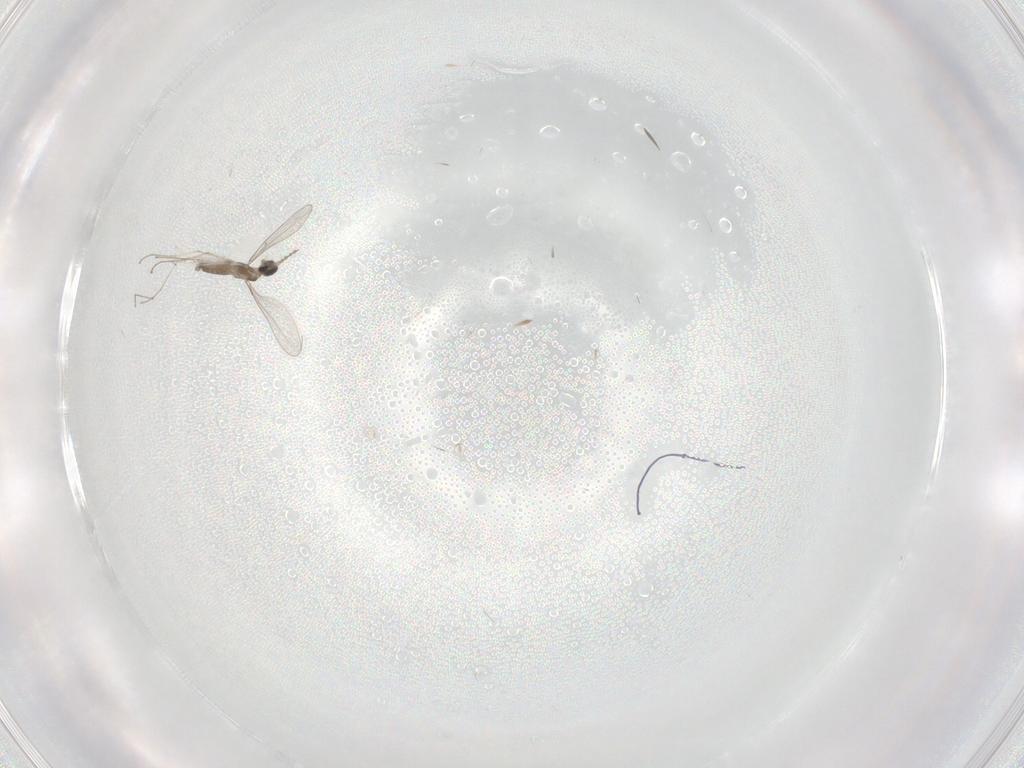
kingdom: Animalia
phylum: Arthropoda
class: Insecta
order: Diptera
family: Cecidomyiidae
